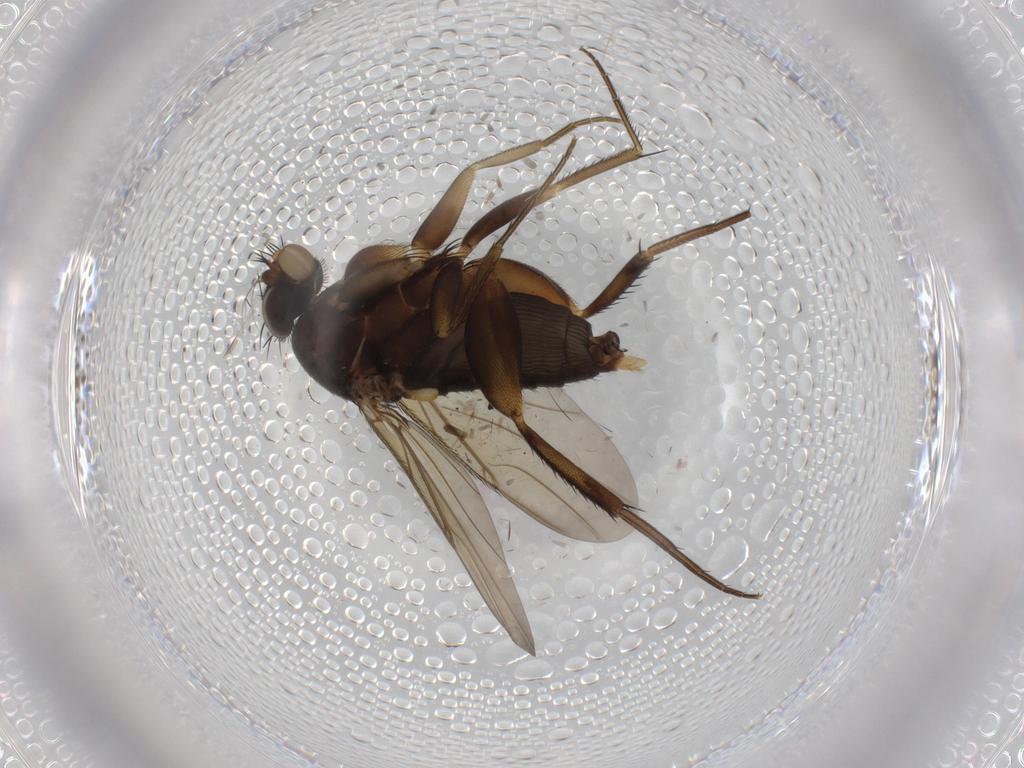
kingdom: Animalia
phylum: Arthropoda
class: Insecta
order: Diptera
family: Phoridae
